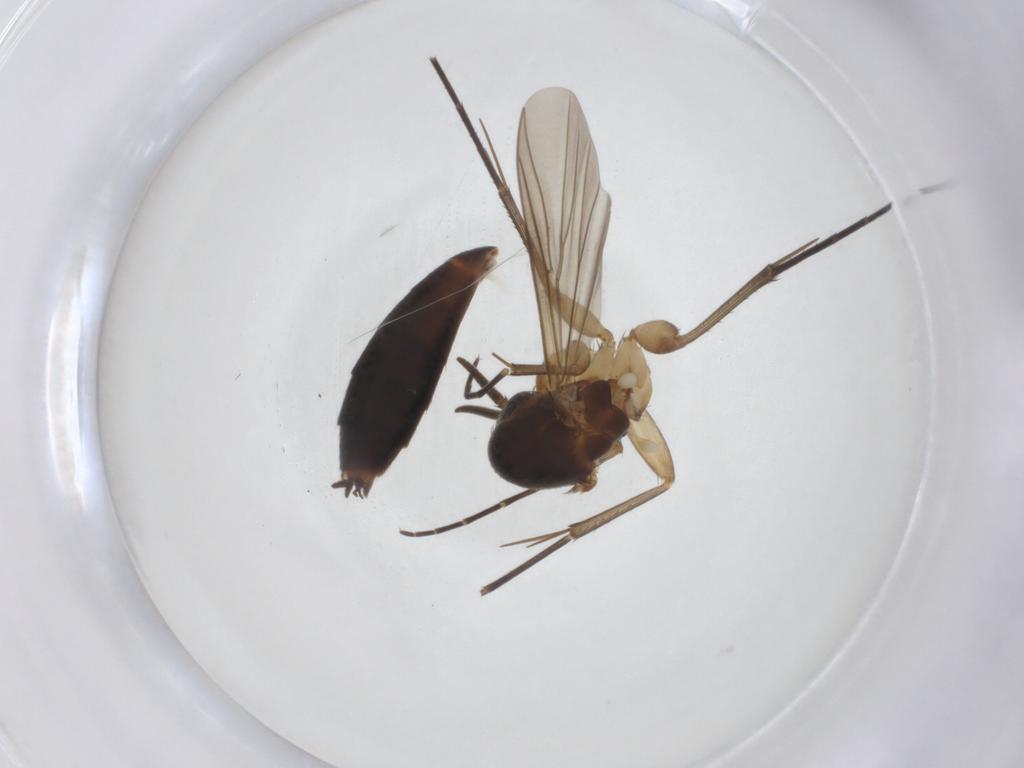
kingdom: Animalia
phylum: Arthropoda
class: Insecta
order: Diptera
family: Mycetophilidae
